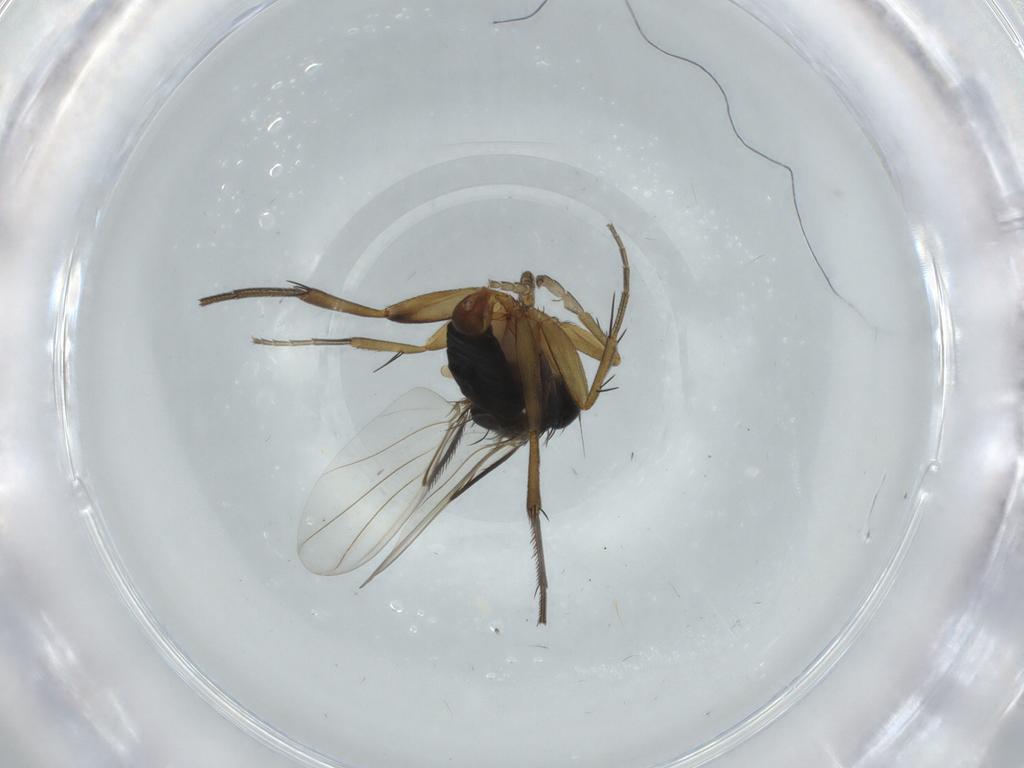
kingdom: Animalia
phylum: Arthropoda
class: Insecta
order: Diptera
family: Phoridae
